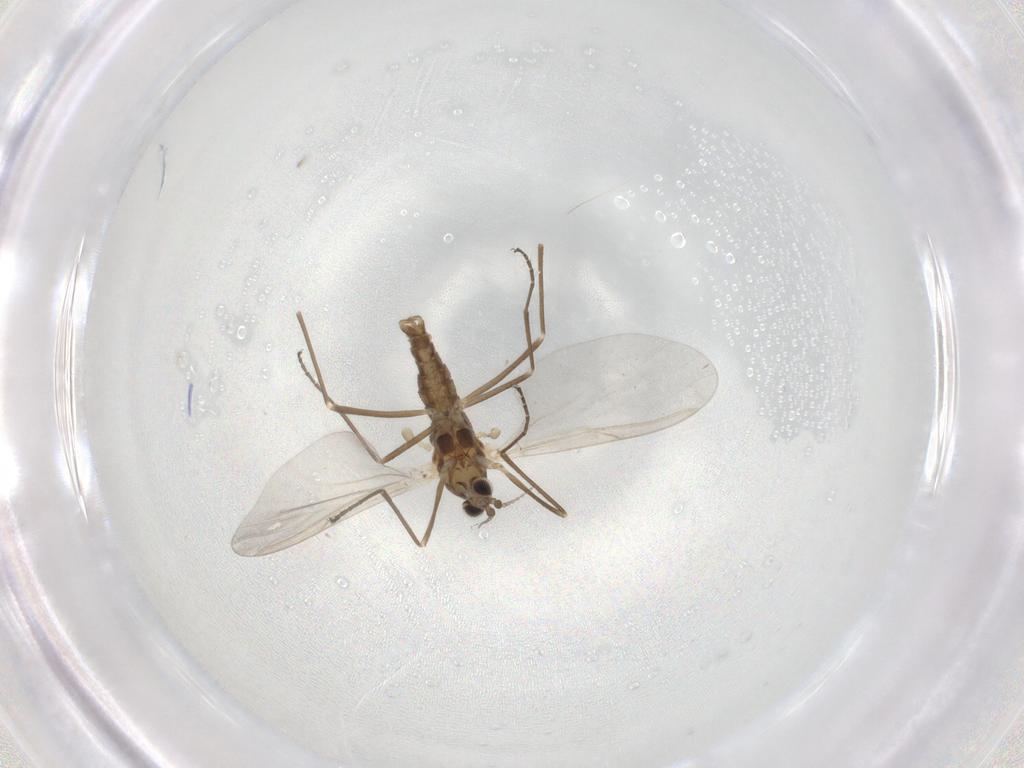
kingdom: Animalia
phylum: Arthropoda
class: Insecta
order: Diptera
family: Cecidomyiidae
